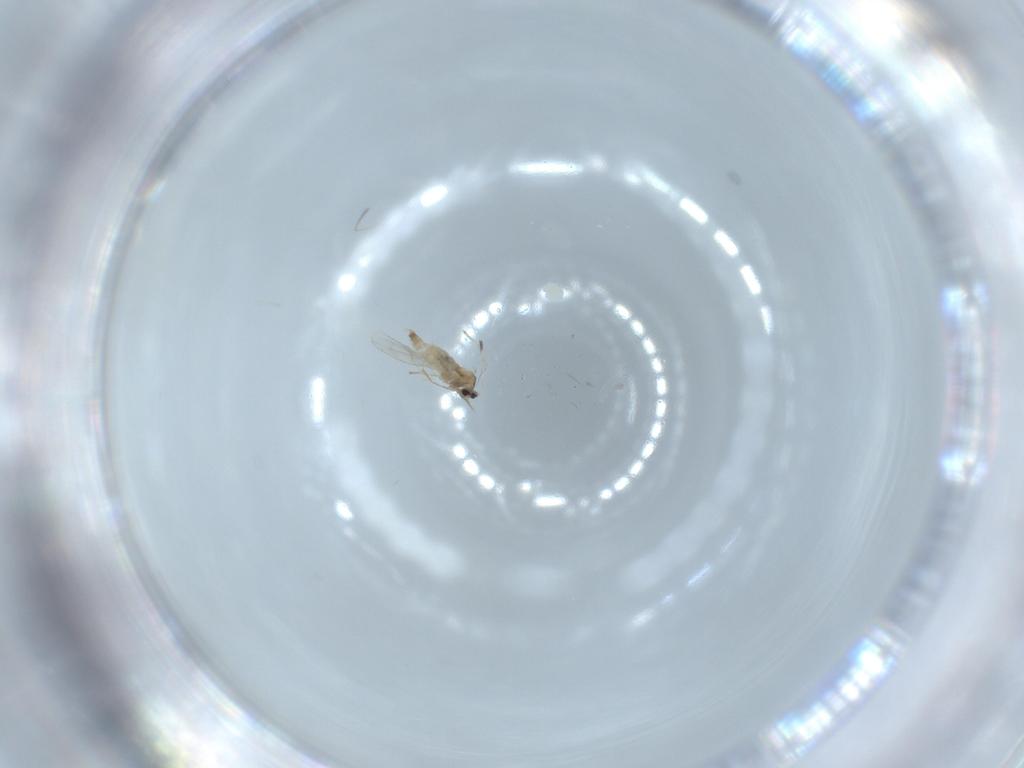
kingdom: Animalia
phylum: Arthropoda
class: Insecta
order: Diptera
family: Cecidomyiidae
